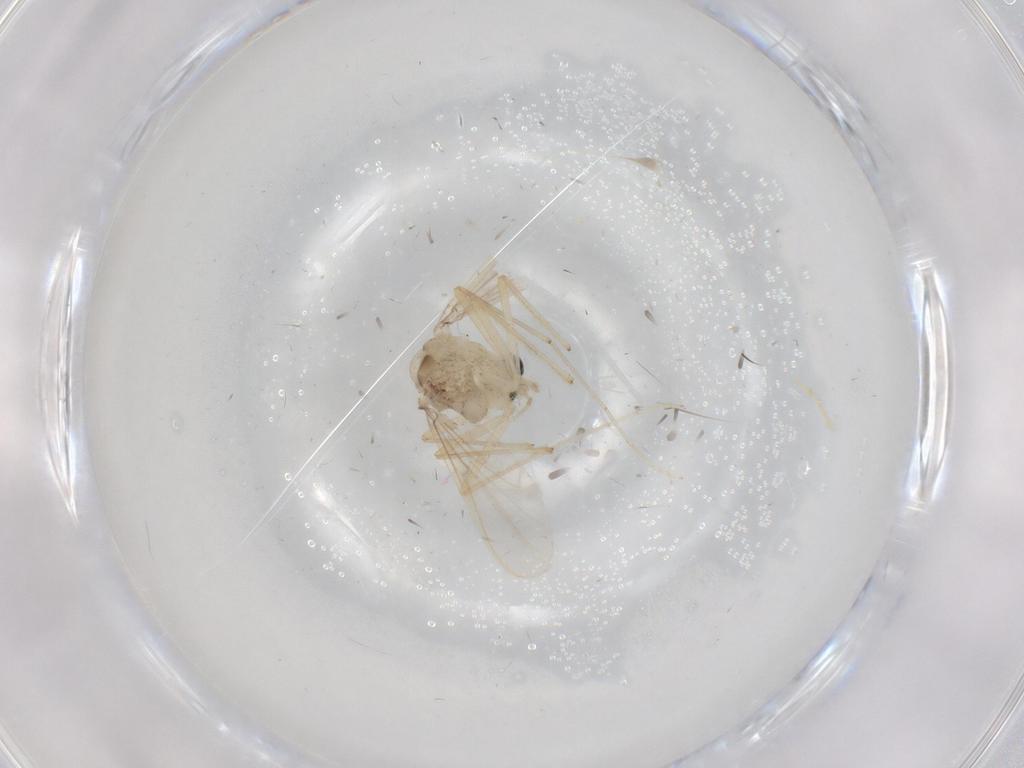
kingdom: Animalia
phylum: Arthropoda
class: Insecta
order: Diptera
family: Chironomidae
